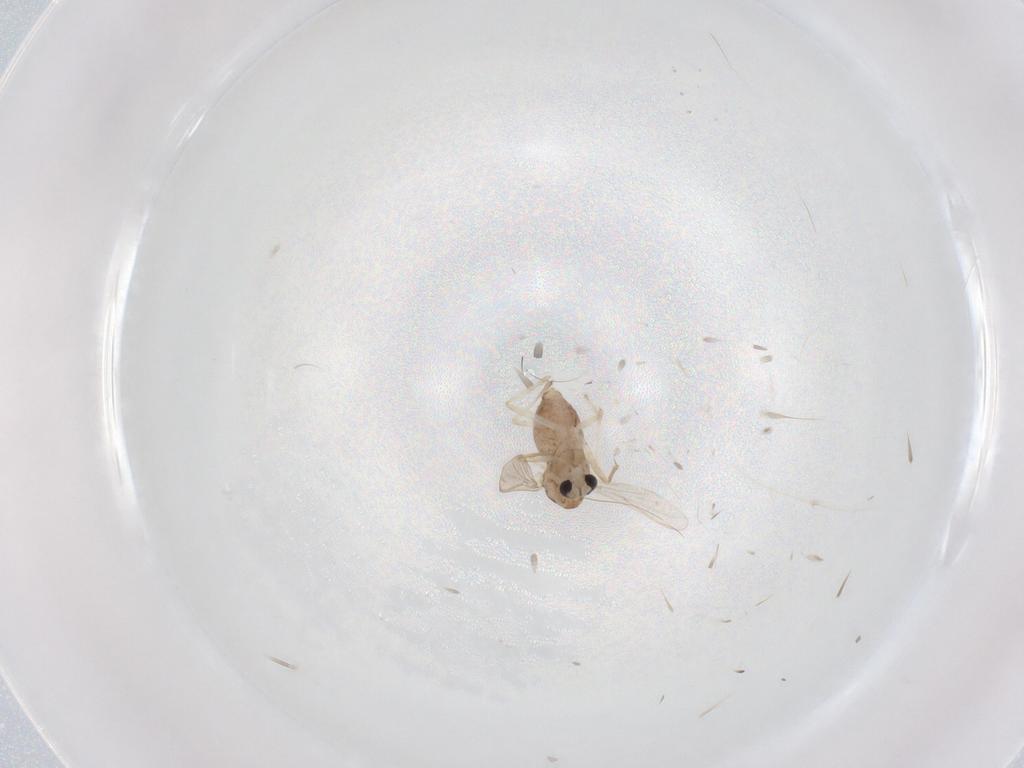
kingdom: Animalia
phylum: Arthropoda
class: Insecta
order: Diptera
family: Chironomidae
